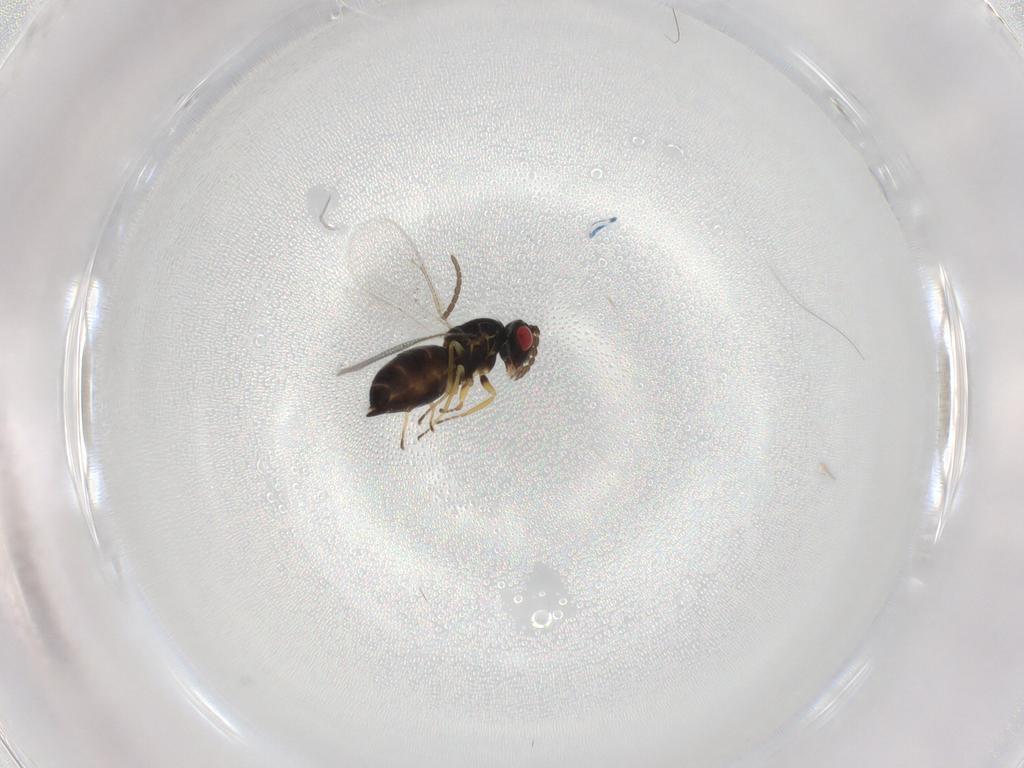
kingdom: Animalia
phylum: Arthropoda
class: Insecta
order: Hymenoptera
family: Eulophidae
